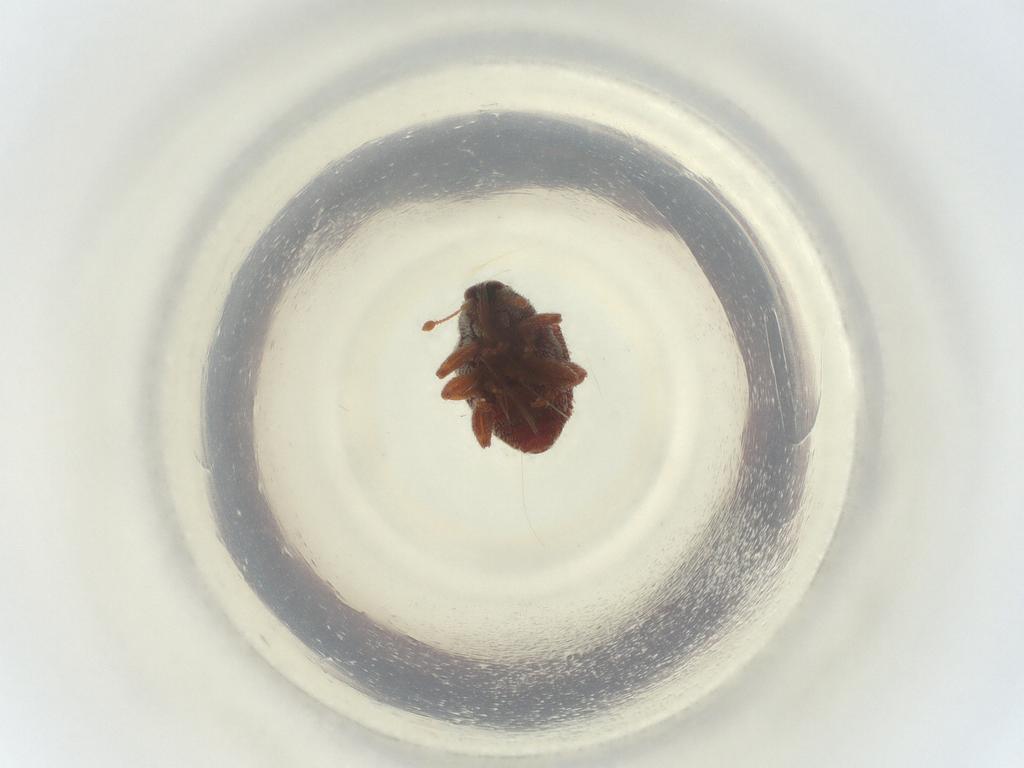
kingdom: Animalia
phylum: Arthropoda
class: Insecta
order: Coleoptera
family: Curculionidae
